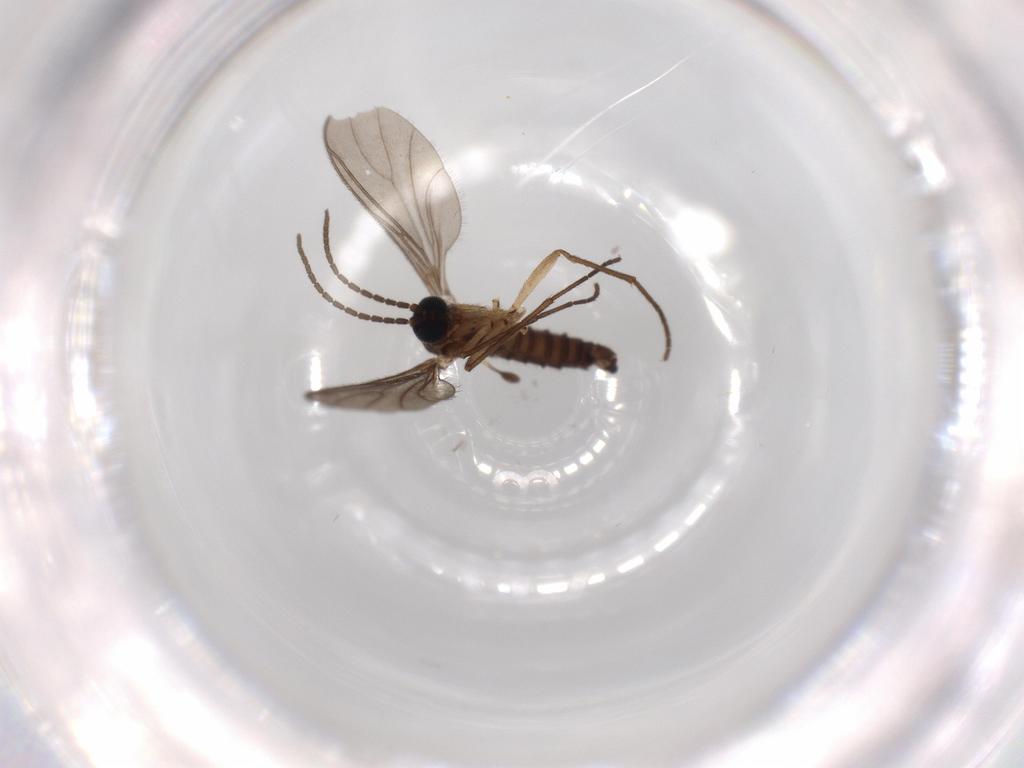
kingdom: Animalia
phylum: Arthropoda
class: Insecta
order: Diptera
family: Sciaridae
